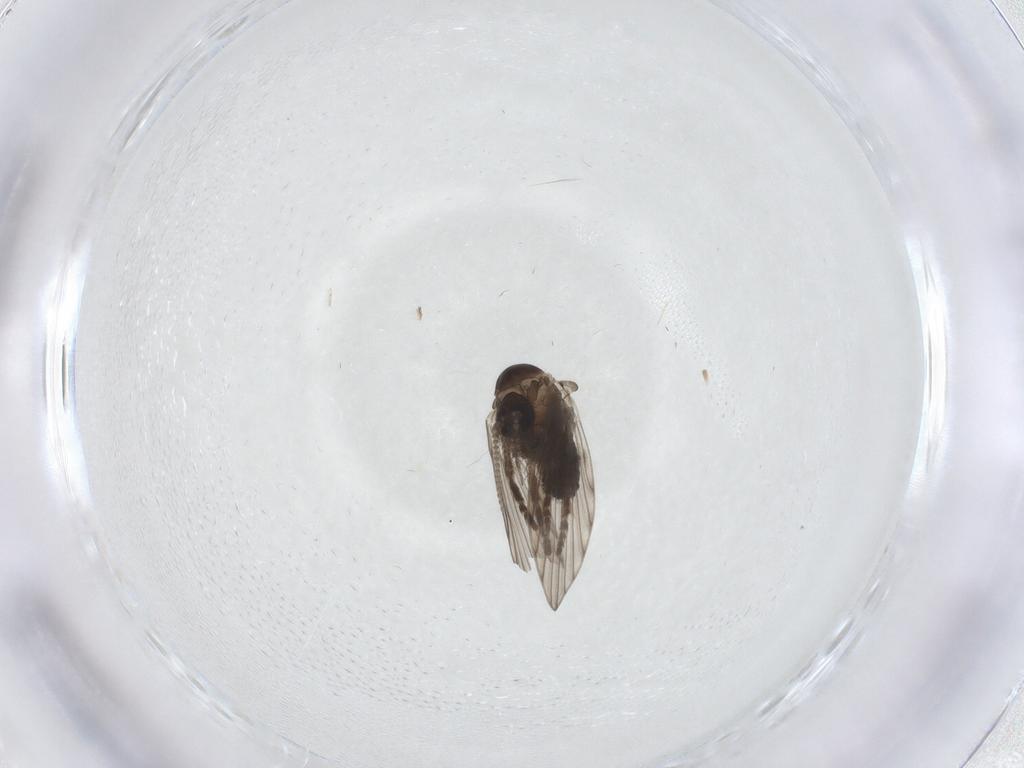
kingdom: Animalia
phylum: Arthropoda
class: Insecta
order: Diptera
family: Psychodidae
